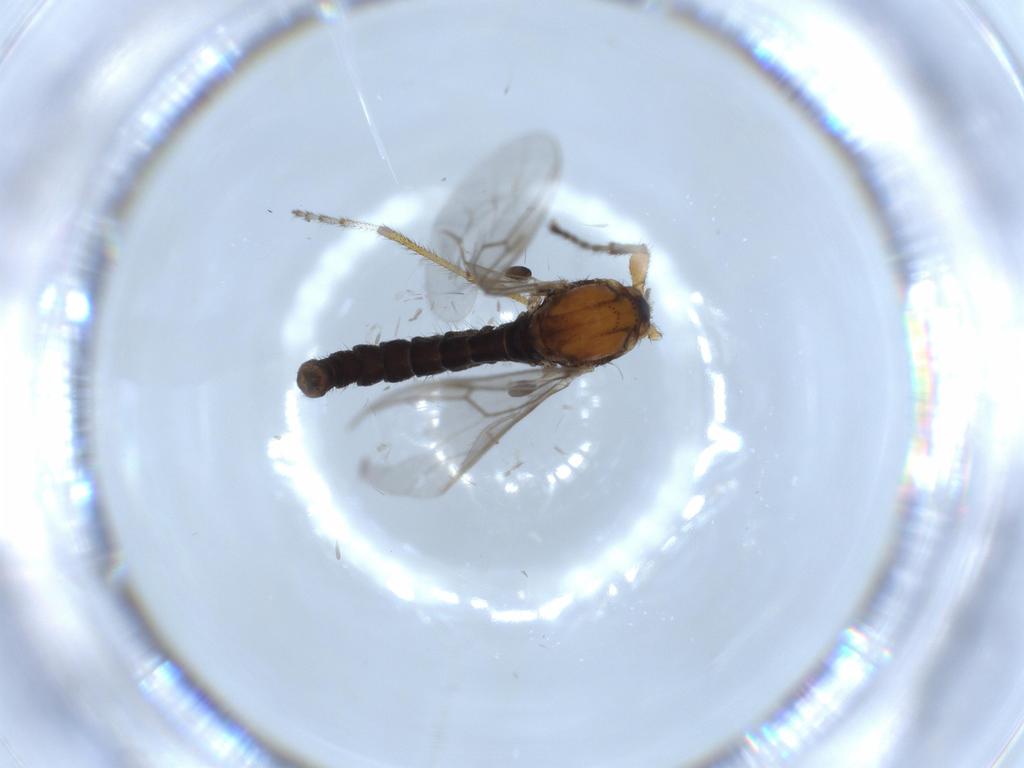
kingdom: Animalia
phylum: Arthropoda
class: Insecta
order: Diptera
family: Bibionidae
